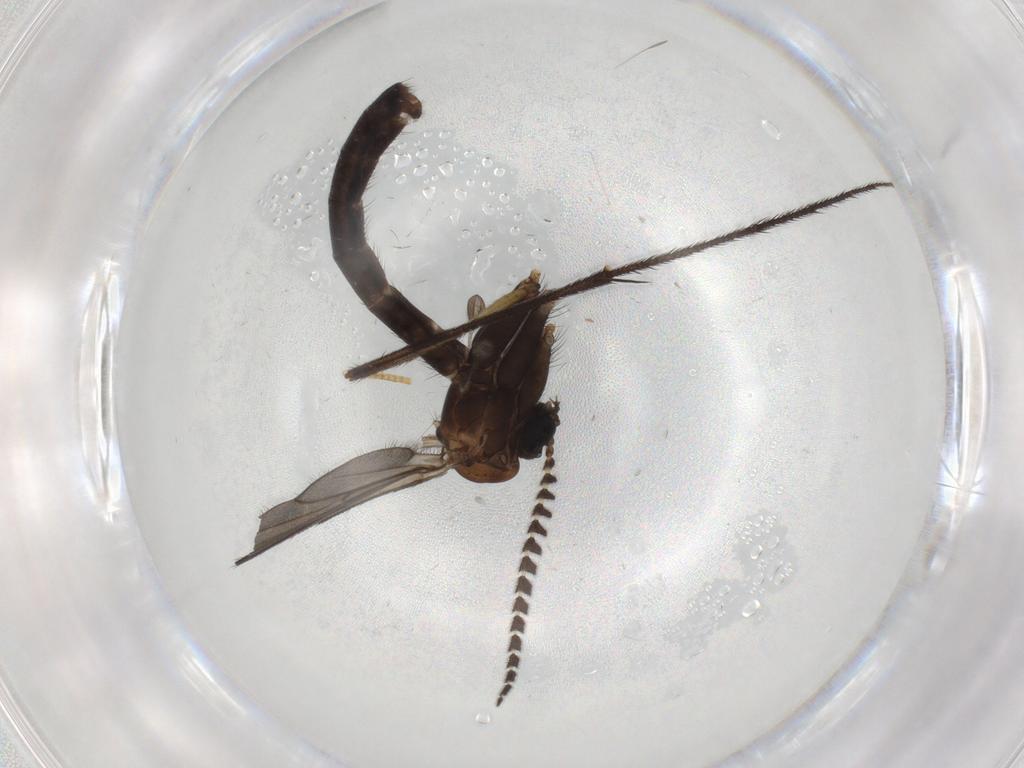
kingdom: Animalia
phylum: Arthropoda
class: Insecta
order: Diptera
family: Ditomyiidae
